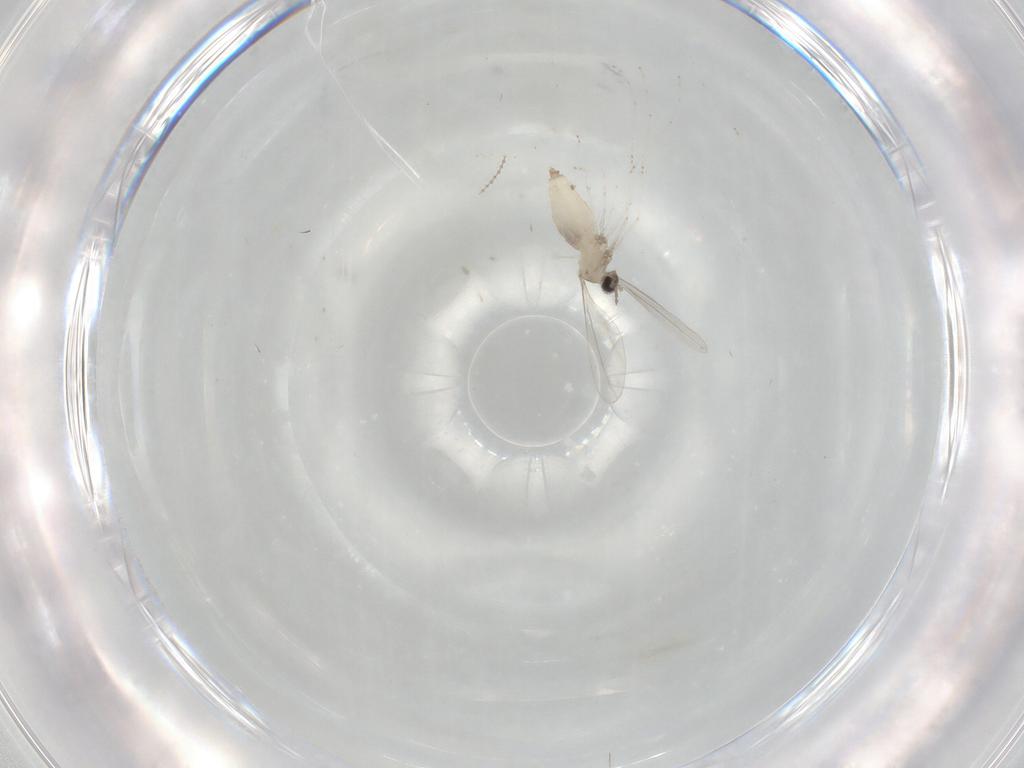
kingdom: Animalia
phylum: Arthropoda
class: Insecta
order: Diptera
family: Cecidomyiidae
